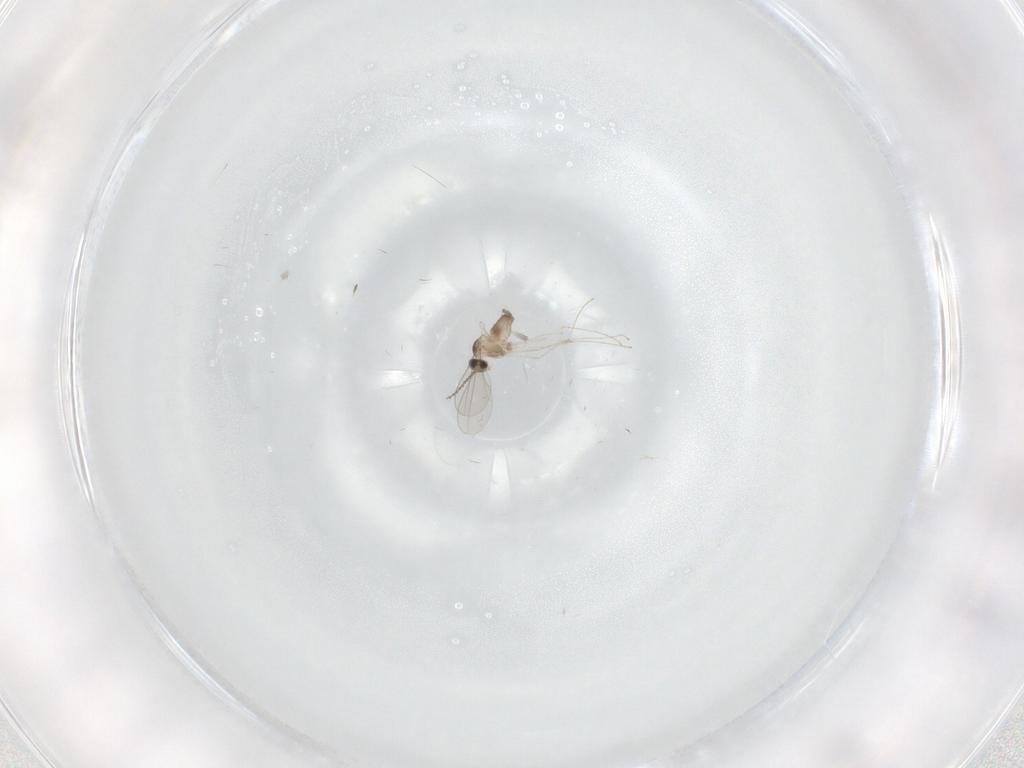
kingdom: Animalia
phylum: Arthropoda
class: Insecta
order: Diptera
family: Cecidomyiidae
